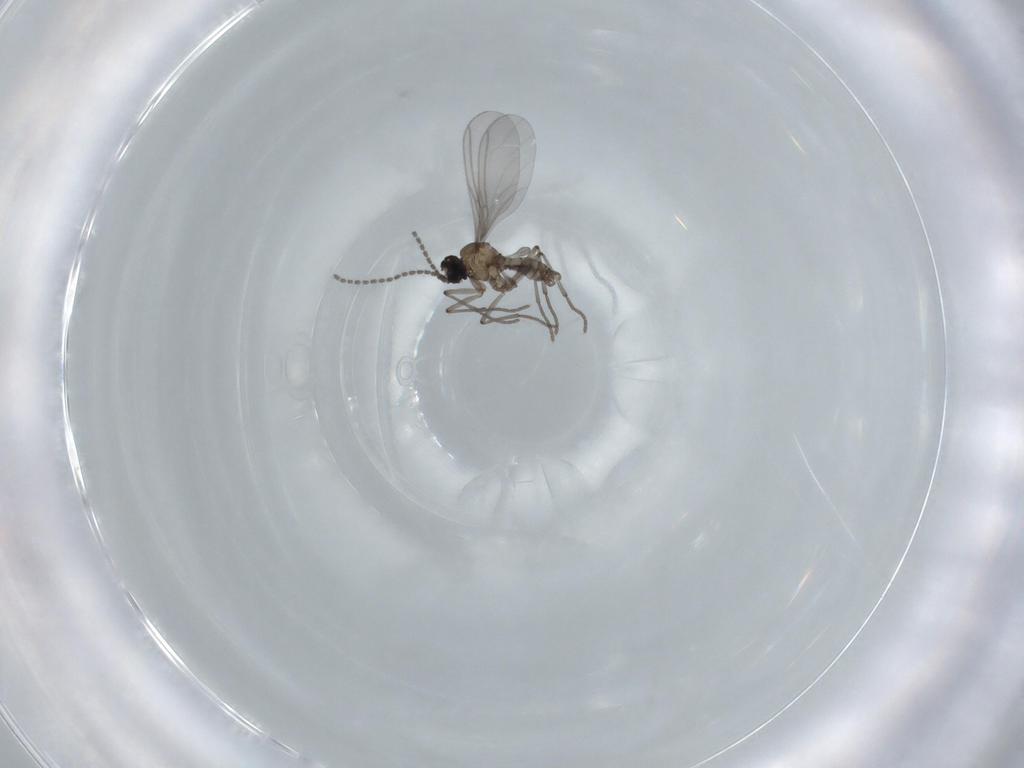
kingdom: Animalia
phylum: Arthropoda
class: Insecta
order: Diptera
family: Sciaridae
